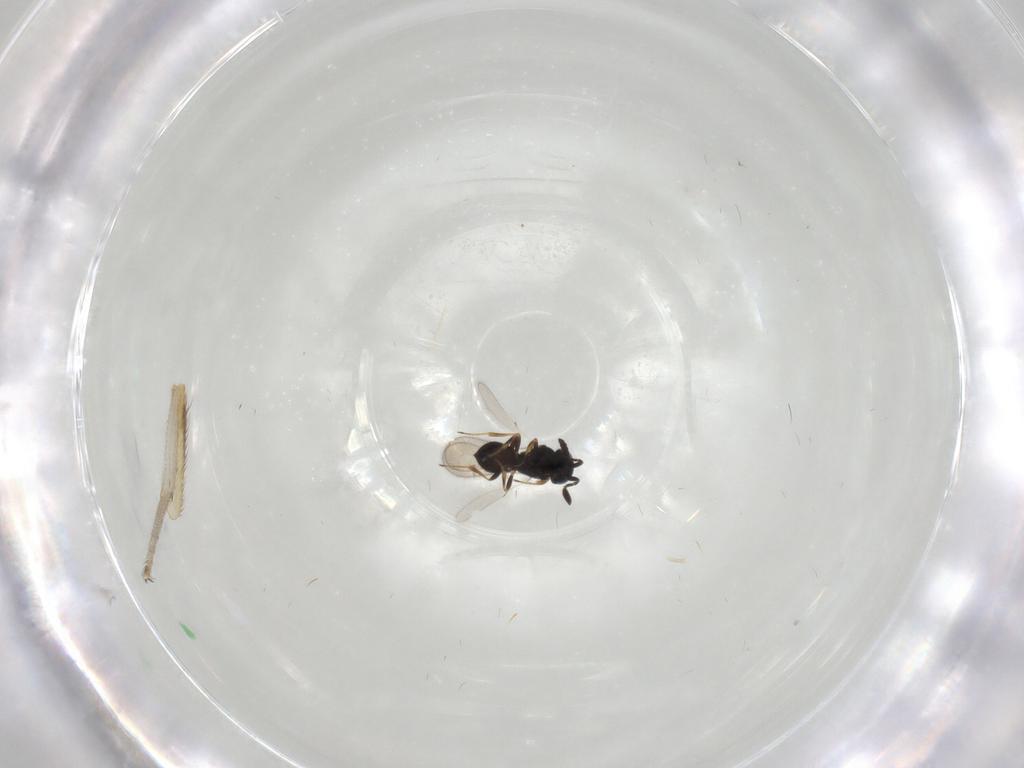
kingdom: Animalia
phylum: Arthropoda
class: Insecta
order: Hymenoptera
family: Scelionidae
